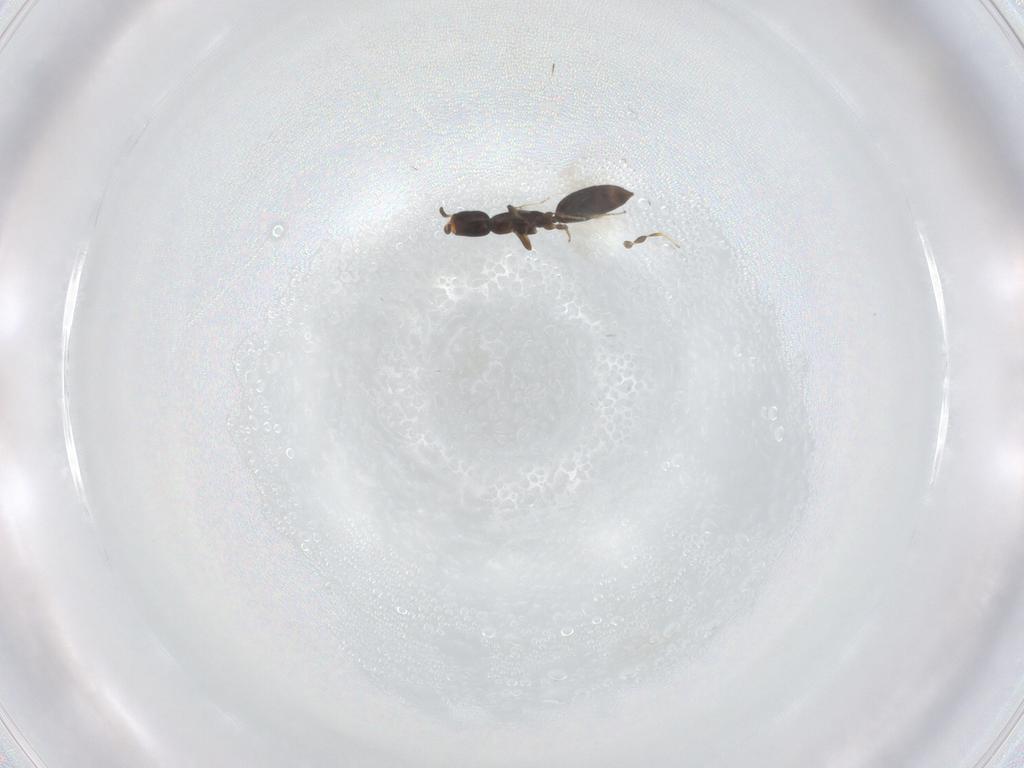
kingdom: Animalia
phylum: Arthropoda
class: Insecta
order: Hymenoptera
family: Bethylidae
